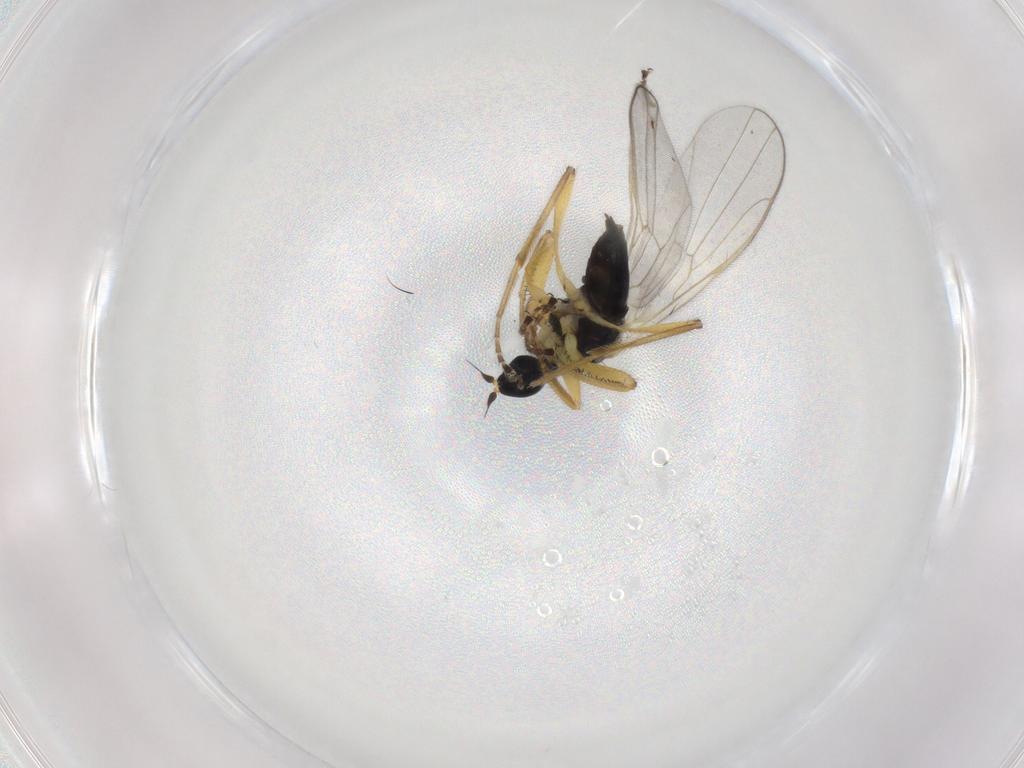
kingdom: Animalia
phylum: Arthropoda
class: Insecta
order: Diptera
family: Hybotidae
